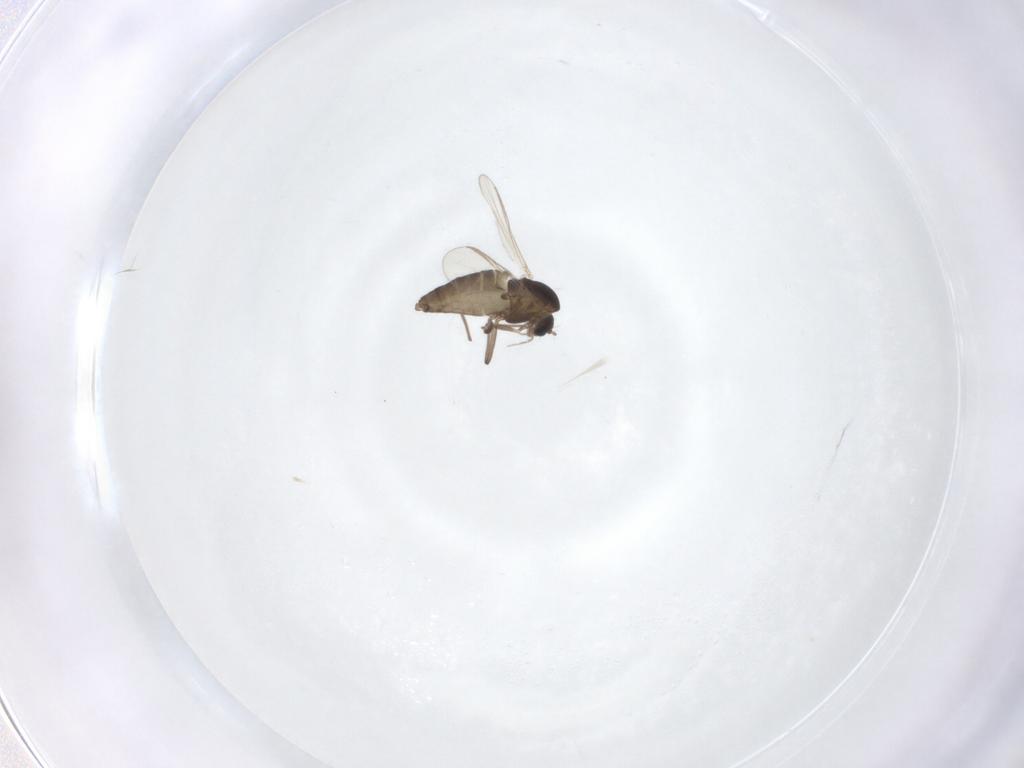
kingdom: Animalia
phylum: Arthropoda
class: Insecta
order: Diptera
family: Chironomidae
